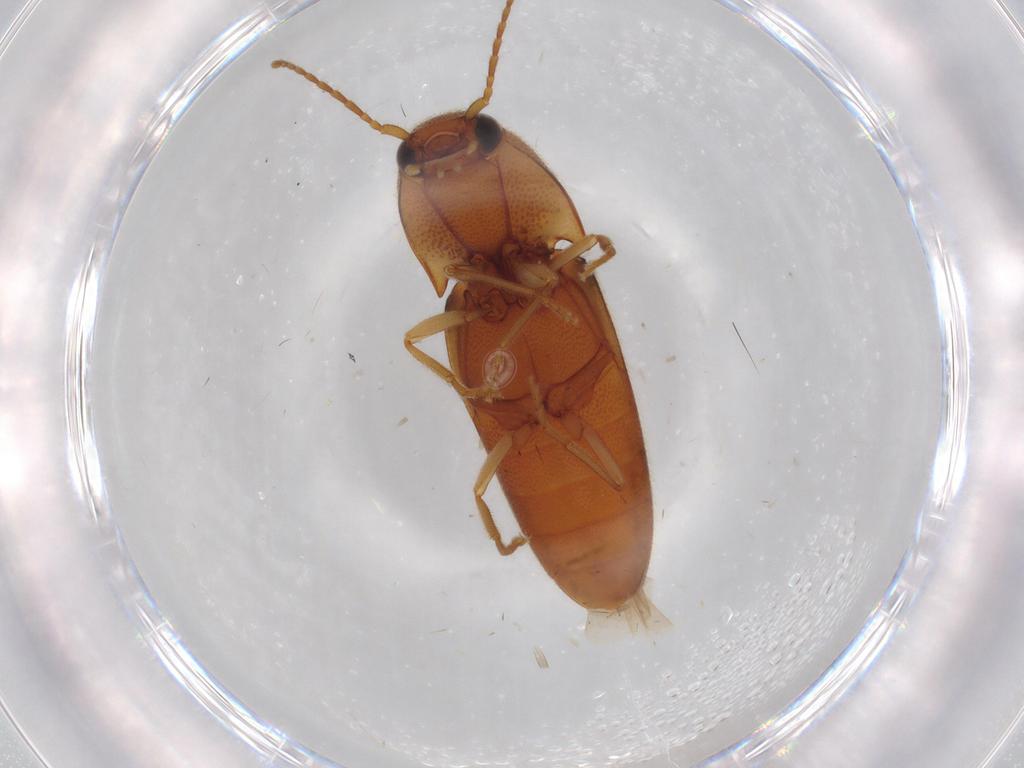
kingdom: Animalia
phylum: Arthropoda
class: Insecta
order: Coleoptera
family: Elateridae
